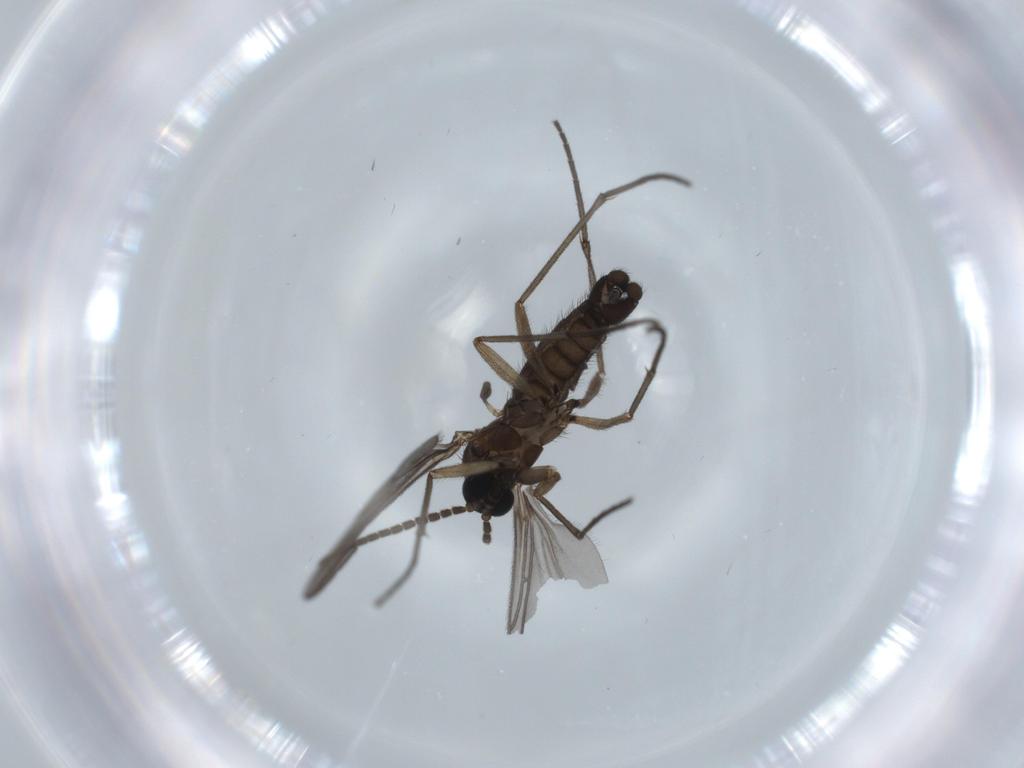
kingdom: Animalia
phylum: Arthropoda
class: Insecta
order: Diptera
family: Sciaridae
